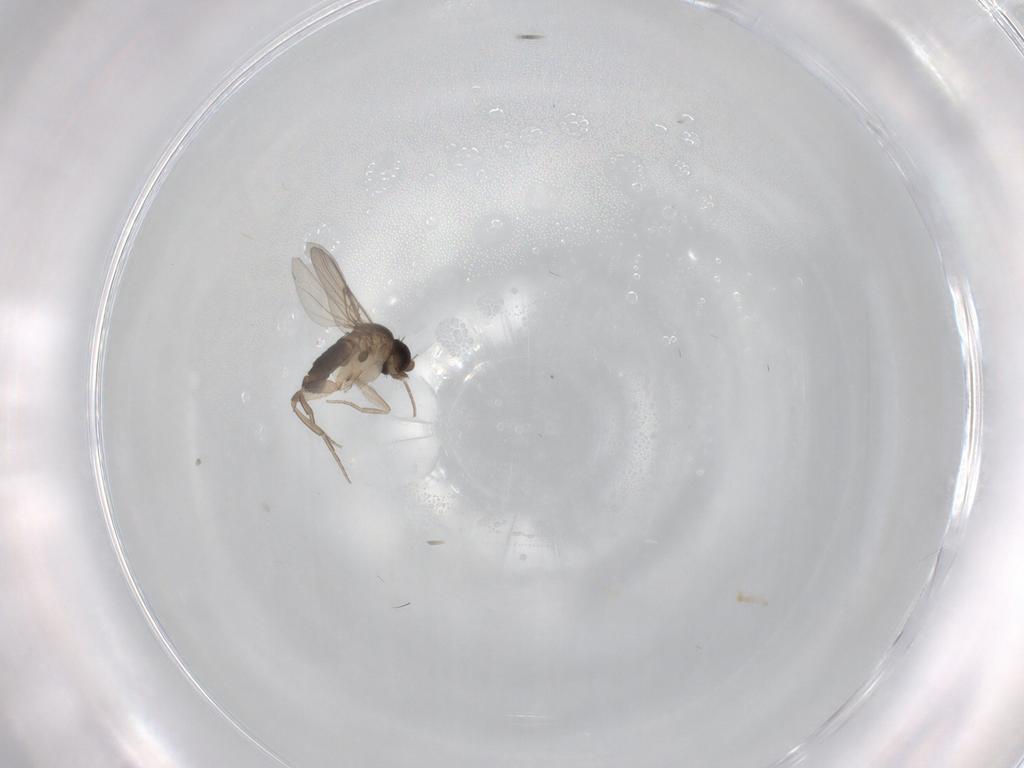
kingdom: Animalia
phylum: Arthropoda
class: Insecta
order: Diptera
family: Phoridae
